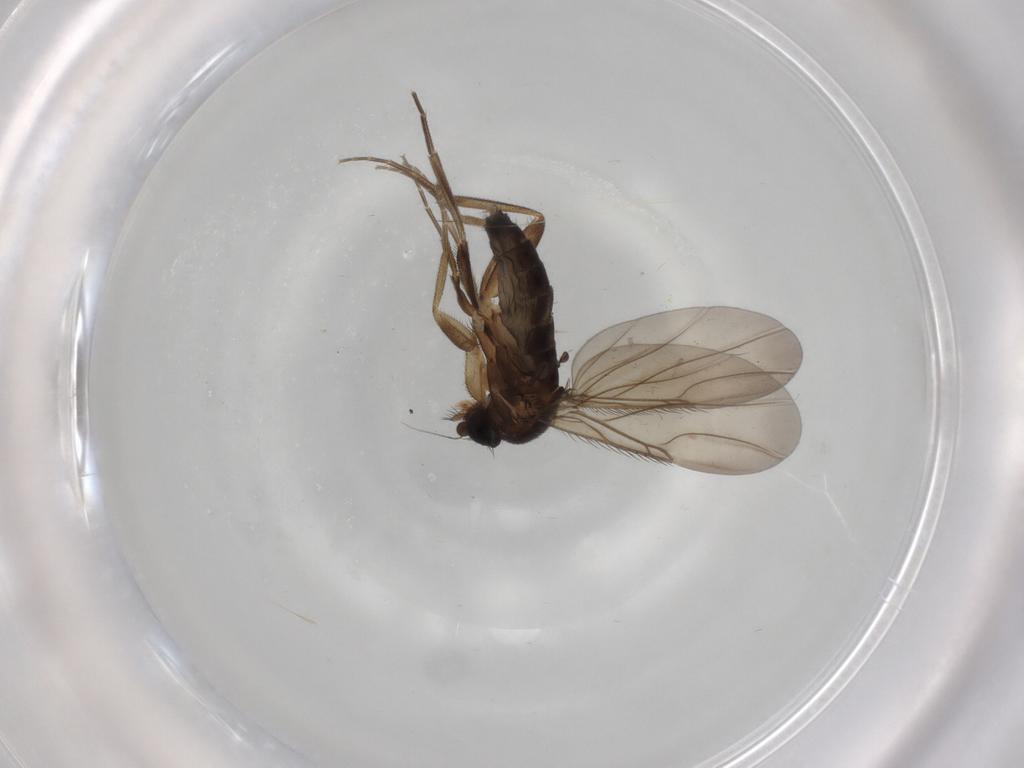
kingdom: Animalia
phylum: Arthropoda
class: Insecta
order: Diptera
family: Phoridae
